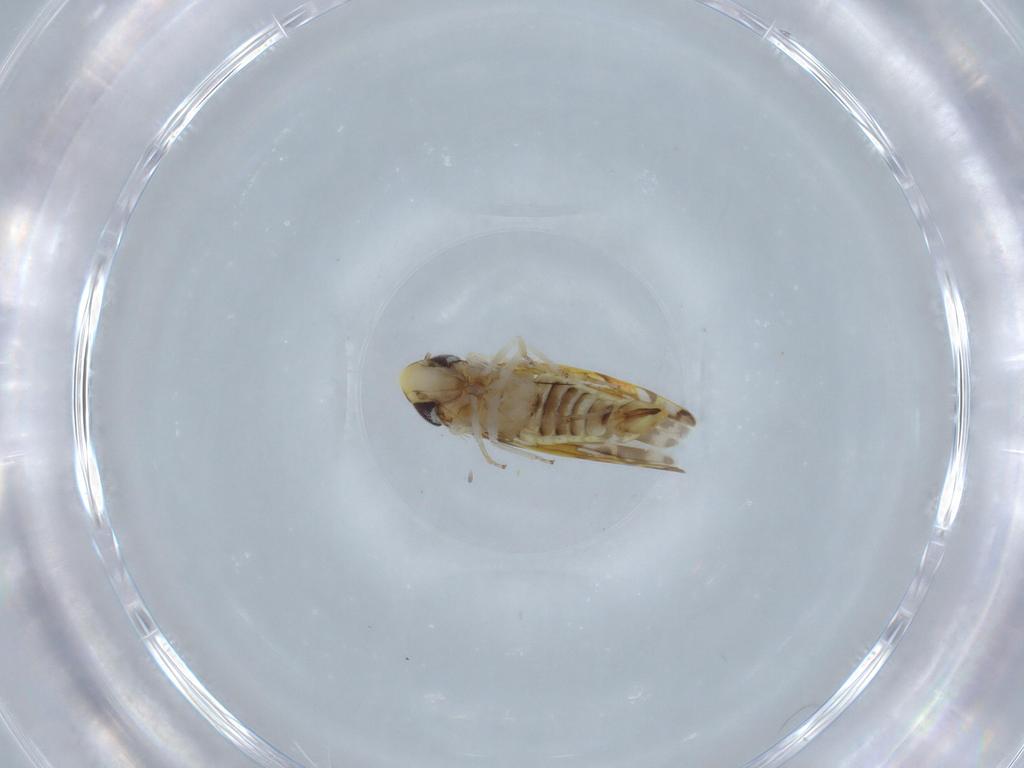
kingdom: Animalia
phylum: Arthropoda
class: Insecta
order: Hemiptera
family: Cicadellidae
